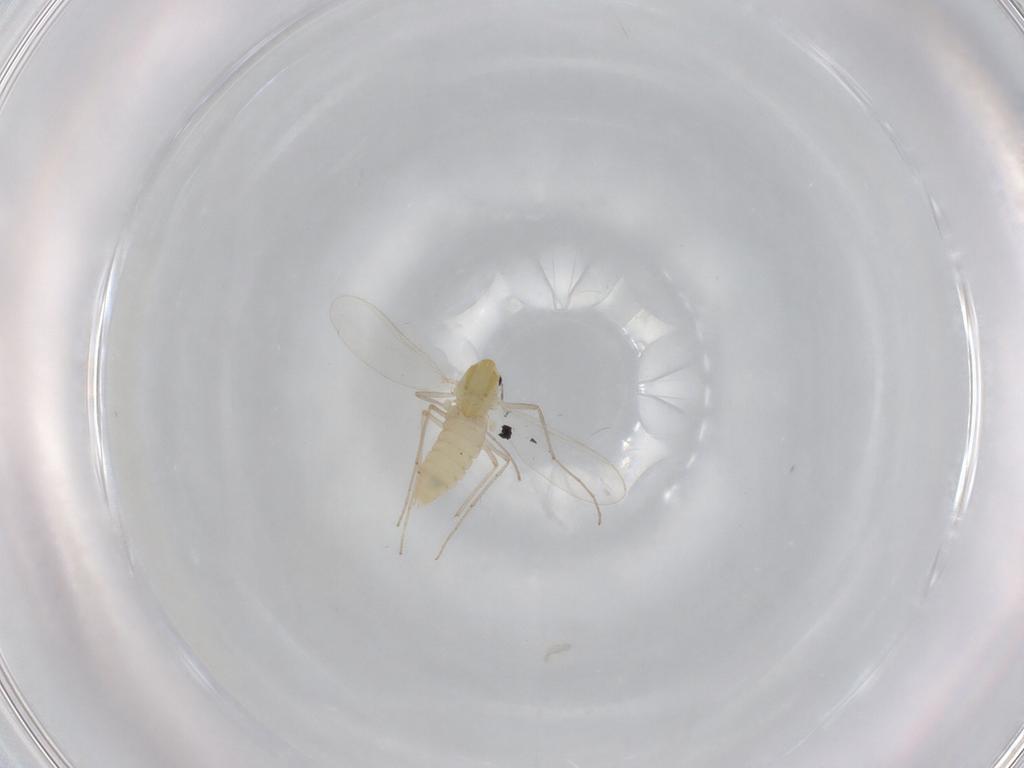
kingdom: Animalia
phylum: Arthropoda
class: Insecta
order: Diptera
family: Chironomidae
